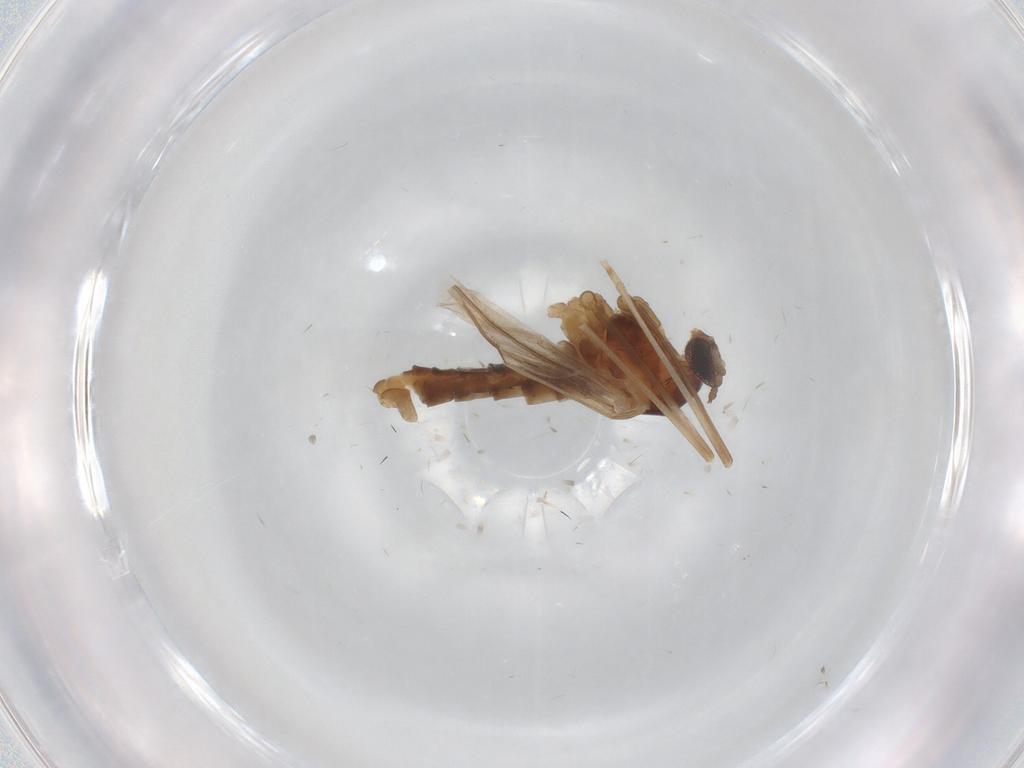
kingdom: Animalia
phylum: Arthropoda
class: Insecta
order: Diptera
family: Cecidomyiidae
